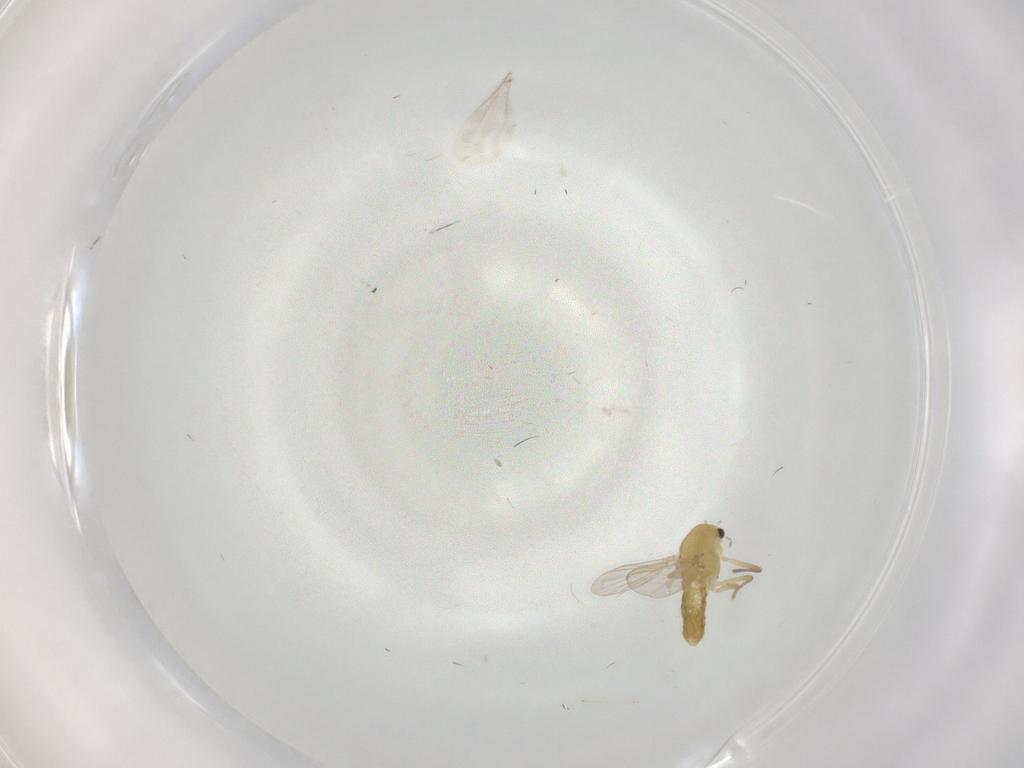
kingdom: Animalia
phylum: Arthropoda
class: Insecta
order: Diptera
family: Chironomidae
